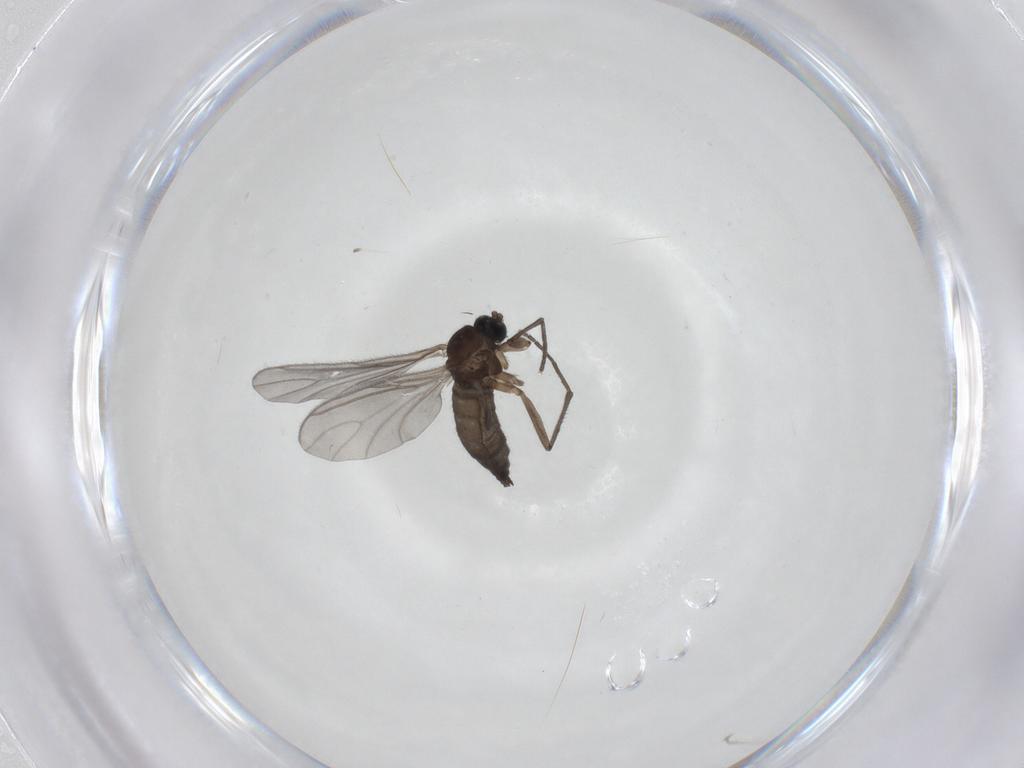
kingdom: Animalia
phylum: Arthropoda
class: Insecta
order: Diptera
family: Sciaridae
